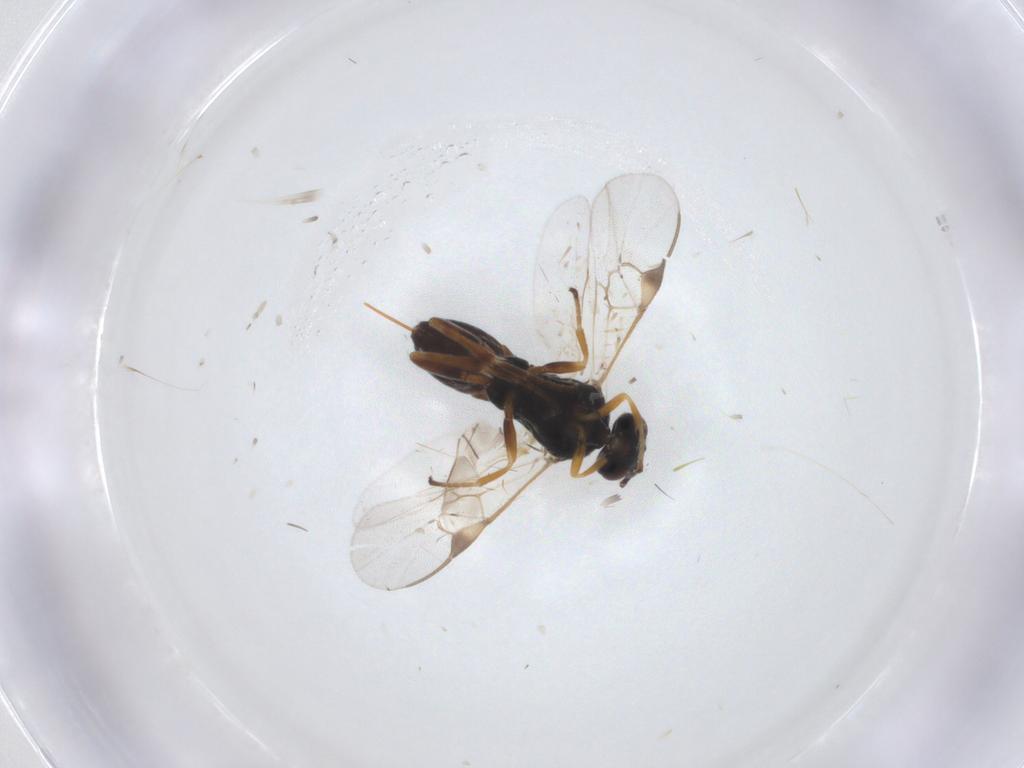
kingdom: Animalia
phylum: Arthropoda
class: Insecta
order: Hymenoptera
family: Braconidae
